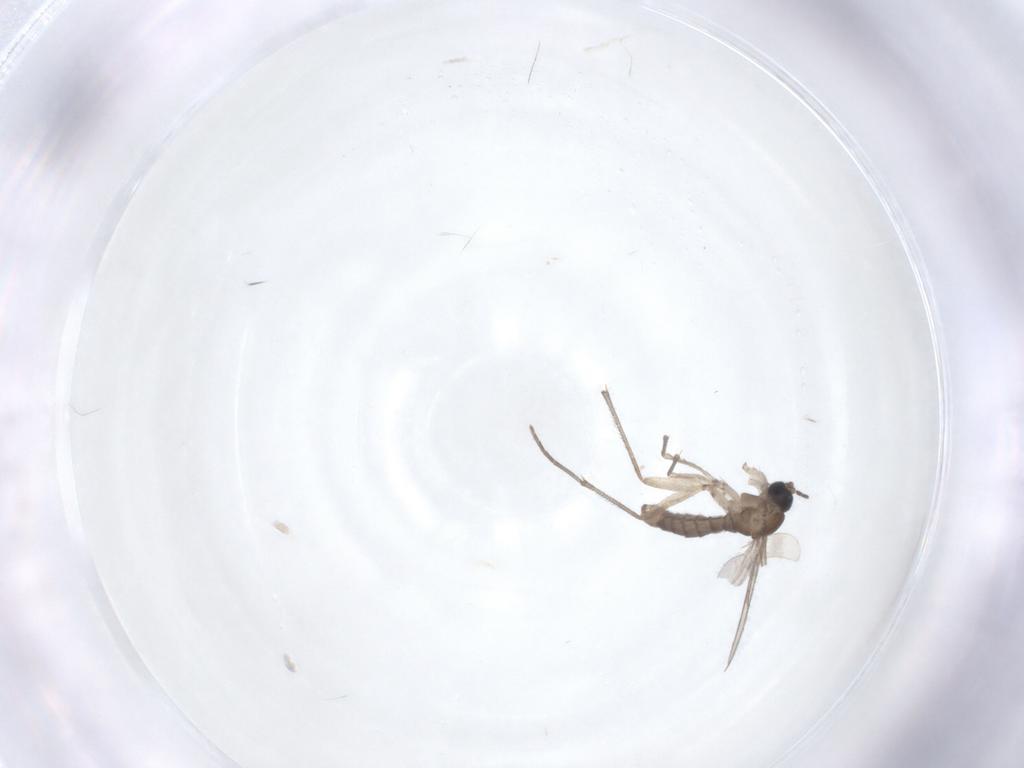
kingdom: Animalia
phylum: Arthropoda
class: Insecta
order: Diptera
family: Sciaridae
